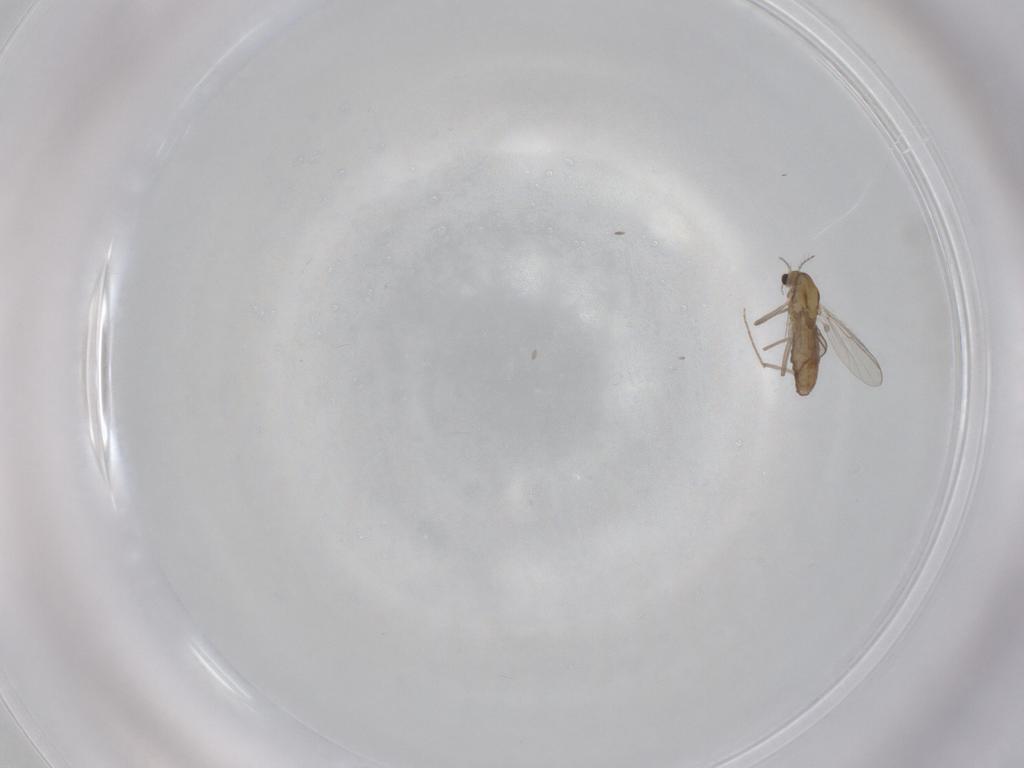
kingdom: Animalia
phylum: Arthropoda
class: Insecta
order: Diptera
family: Chironomidae
